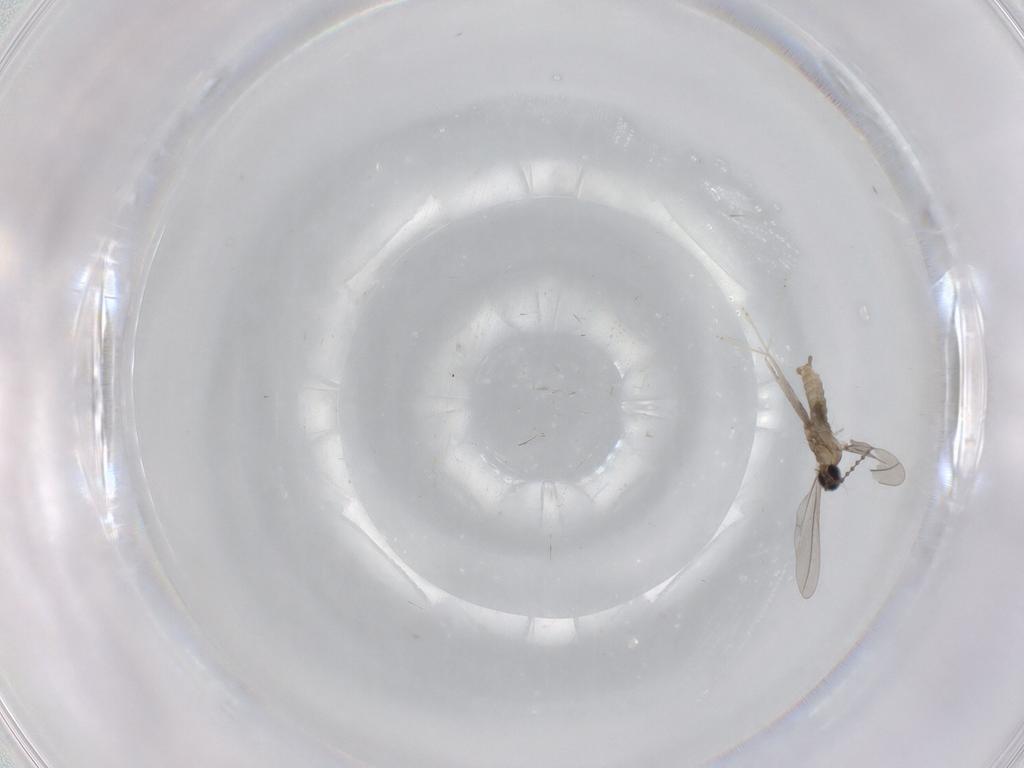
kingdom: Animalia
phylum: Arthropoda
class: Insecta
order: Diptera
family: Cecidomyiidae
